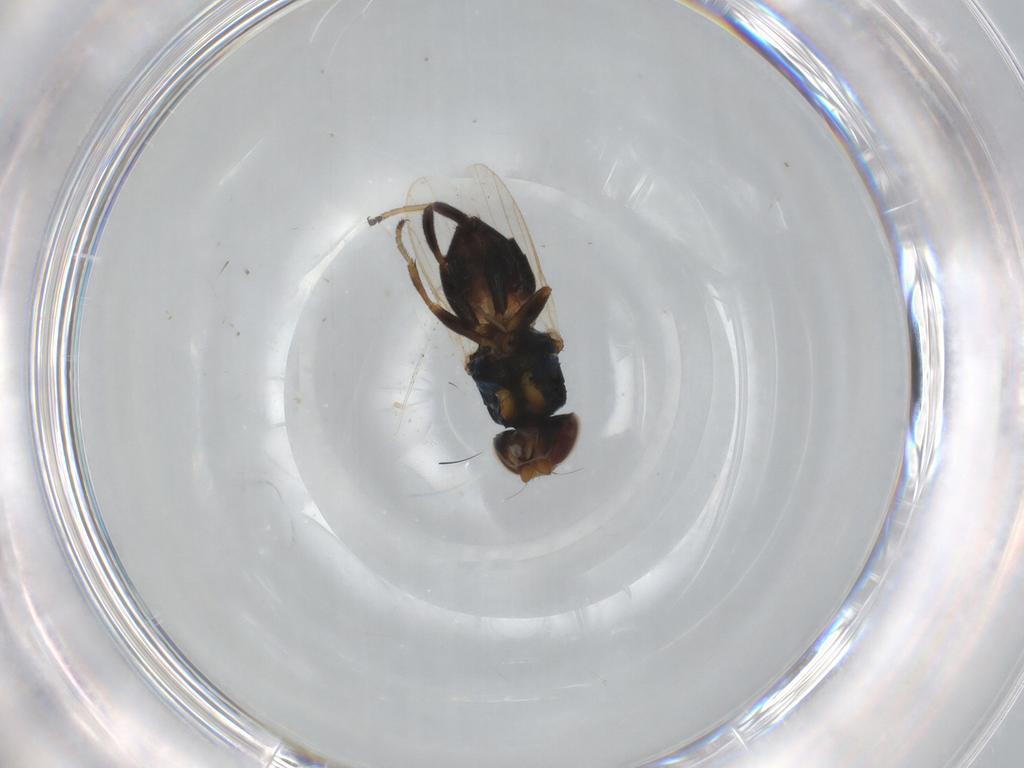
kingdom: Animalia
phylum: Arthropoda
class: Insecta
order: Diptera
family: Chloropidae
